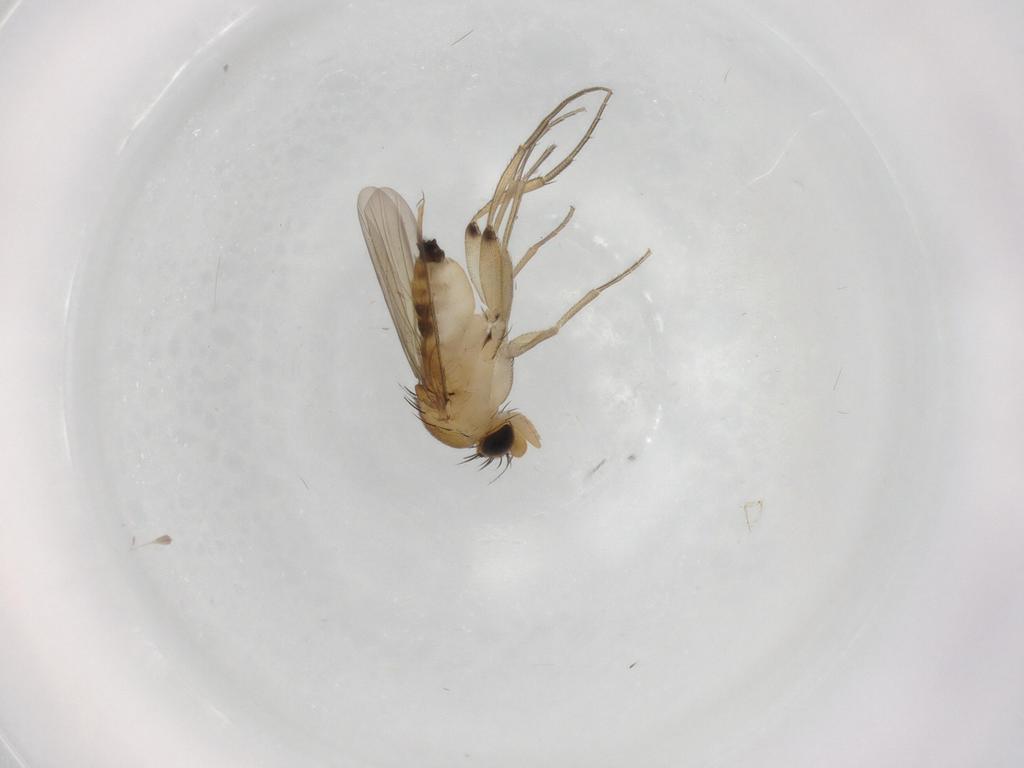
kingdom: Animalia
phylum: Arthropoda
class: Insecta
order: Diptera
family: Phoridae
